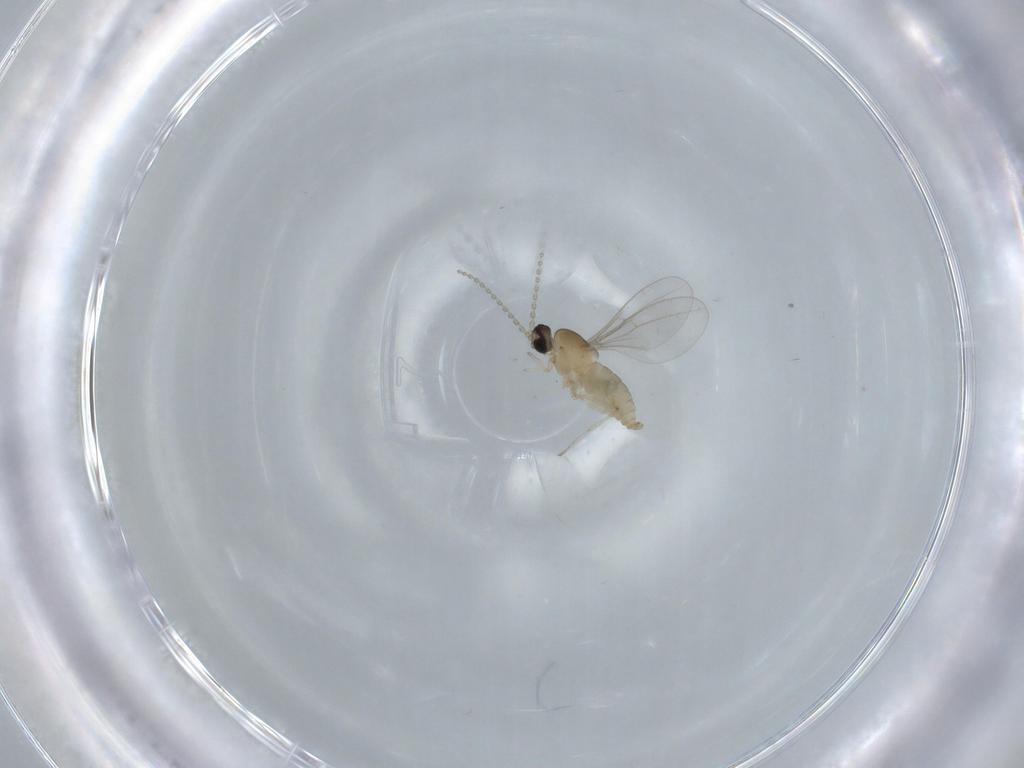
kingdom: Animalia
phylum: Arthropoda
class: Insecta
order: Diptera
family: Cecidomyiidae
